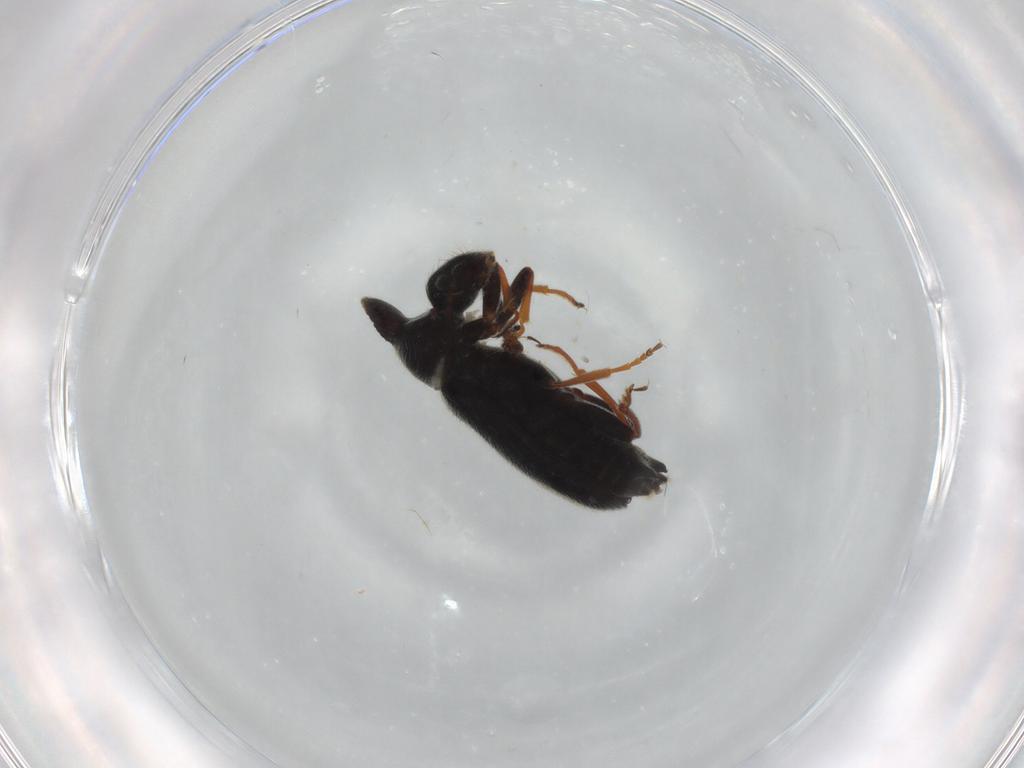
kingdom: Animalia
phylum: Arthropoda
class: Insecta
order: Coleoptera
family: Anthicidae
